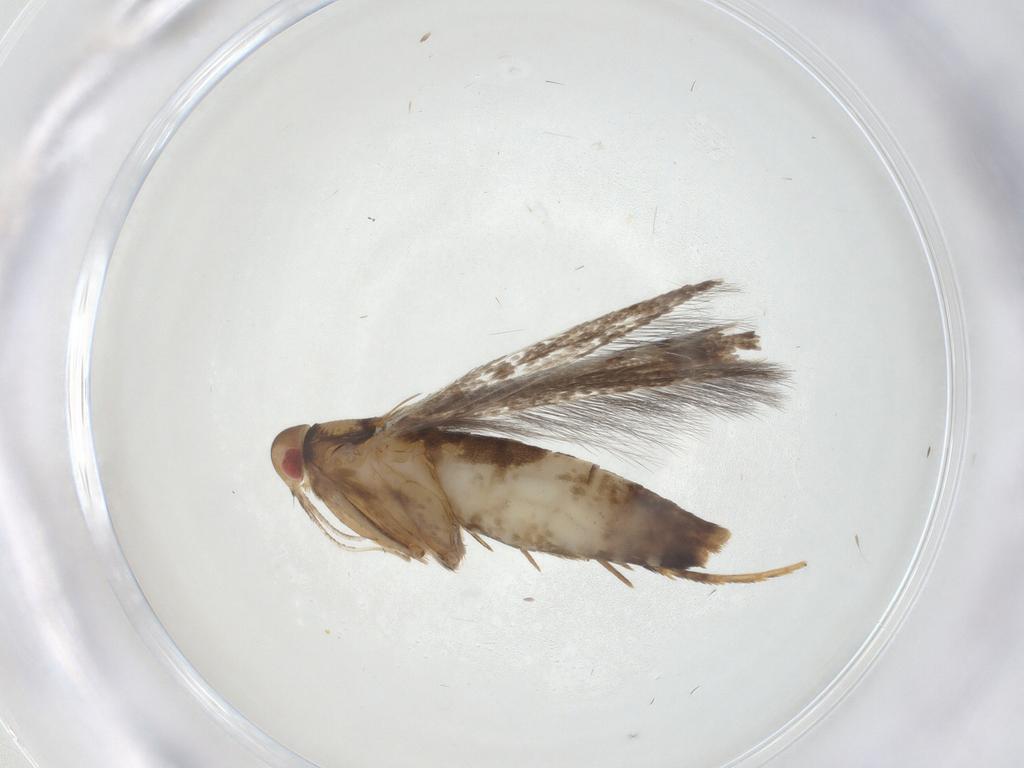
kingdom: Animalia
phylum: Arthropoda
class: Insecta
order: Lepidoptera
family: Cosmopterigidae
